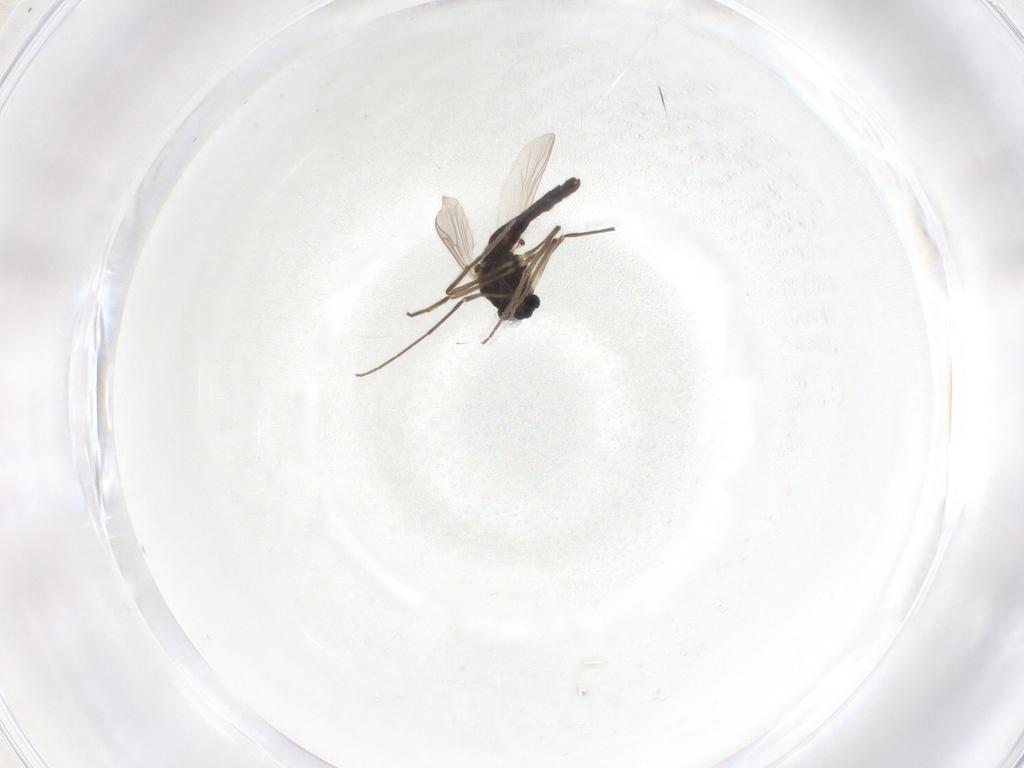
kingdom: Animalia
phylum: Arthropoda
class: Insecta
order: Diptera
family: Chironomidae
